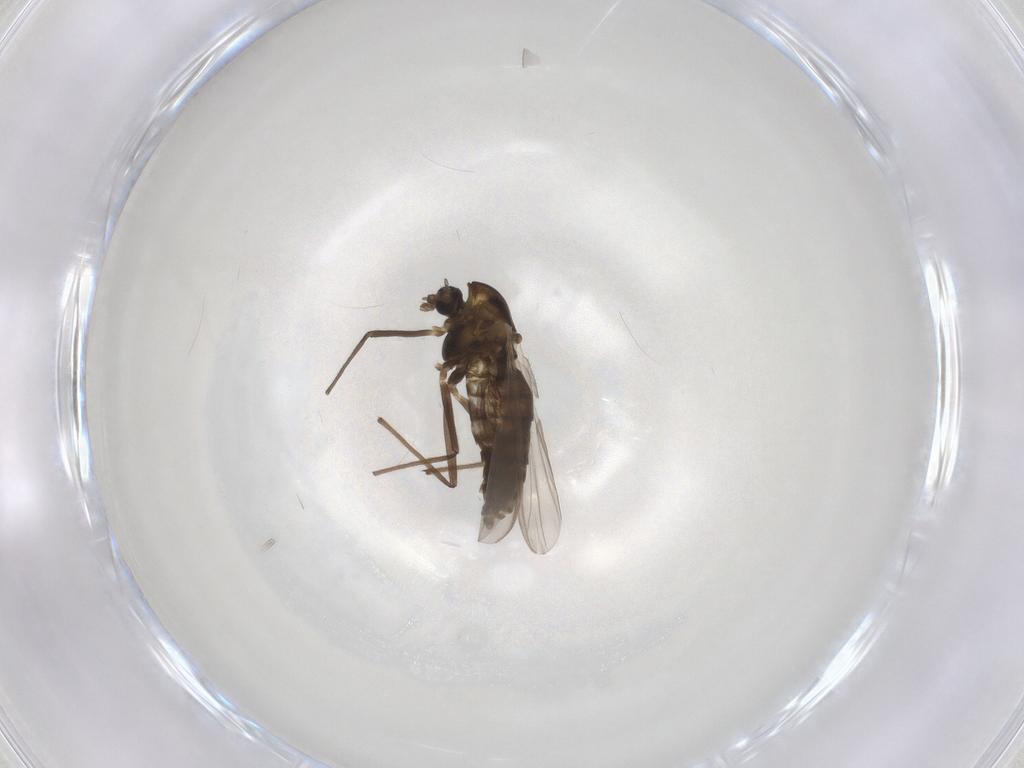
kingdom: Animalia
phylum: Arthropoda
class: Insecta
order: Diptera
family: Chironomidae
